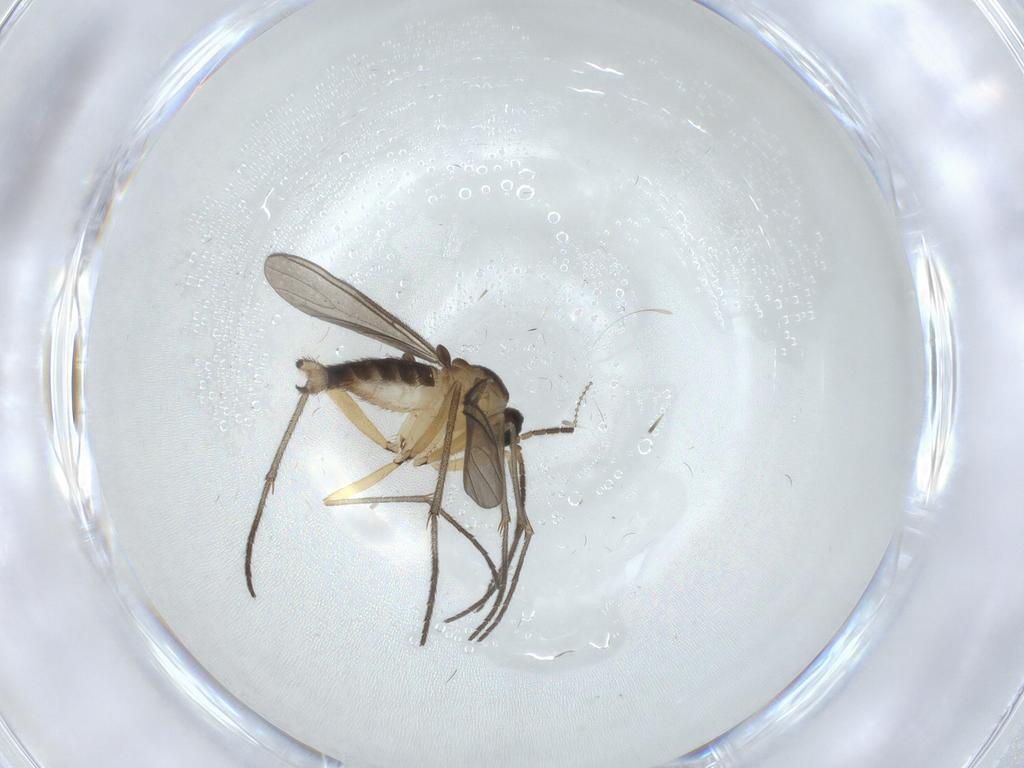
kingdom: Animalia
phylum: Arthropoda
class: Insecta
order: Diptera
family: Sciaridae
